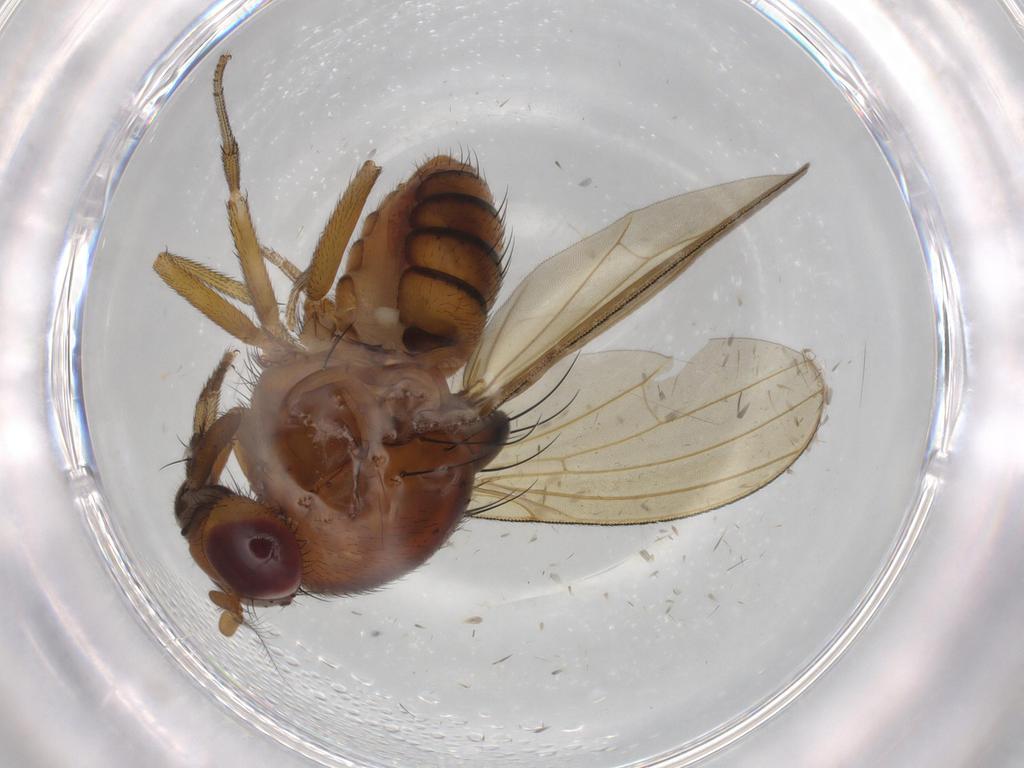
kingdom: Animalia
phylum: Arthropoda
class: Insecta
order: Diptera
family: Lauxaniidae
